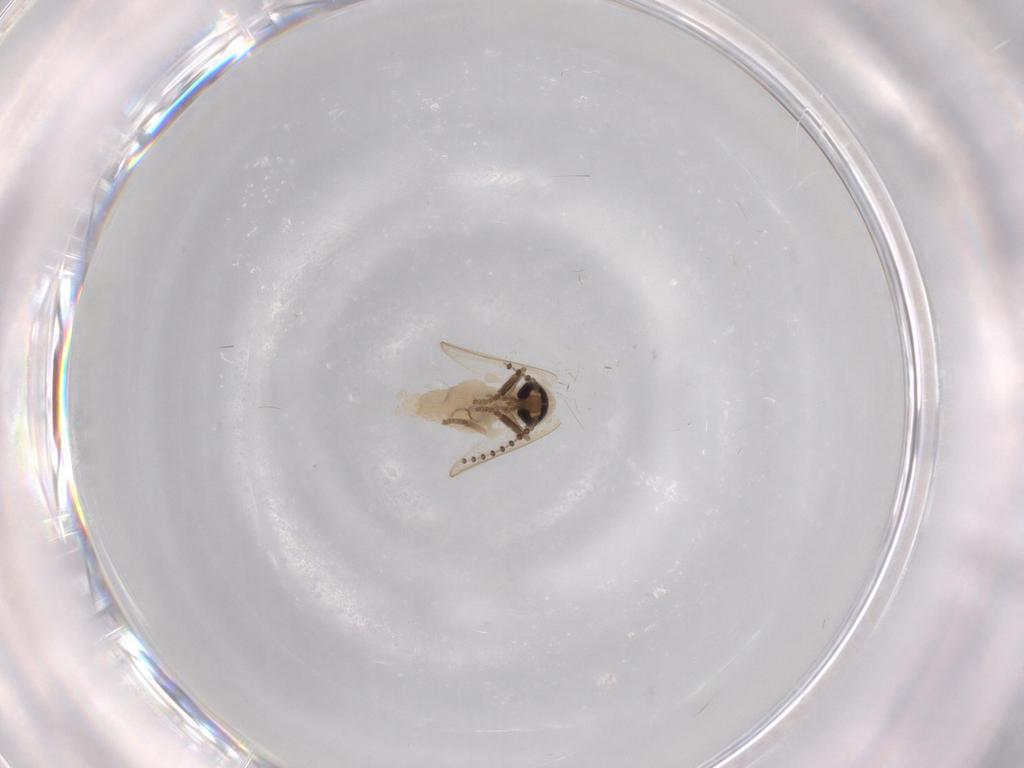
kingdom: Animalia
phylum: Arthropoda
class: Insecta
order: Diptera
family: Psychodidae
